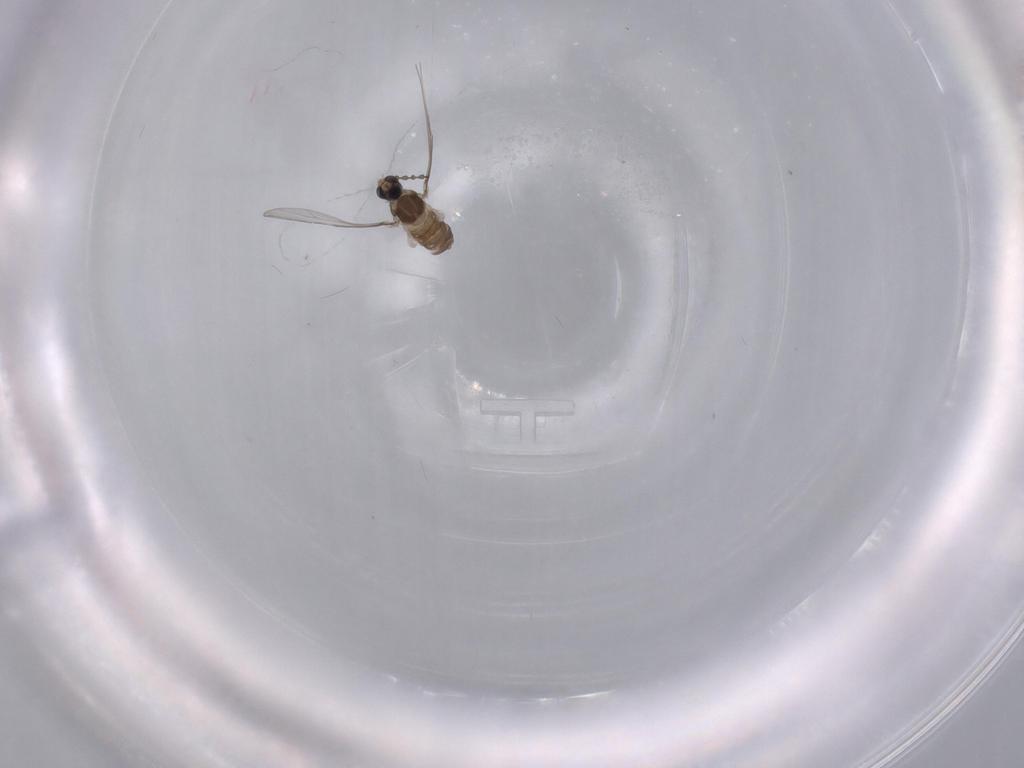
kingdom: Animalia
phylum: Arthropoda
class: Insecta
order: Diptera
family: Cecidomyiidae
